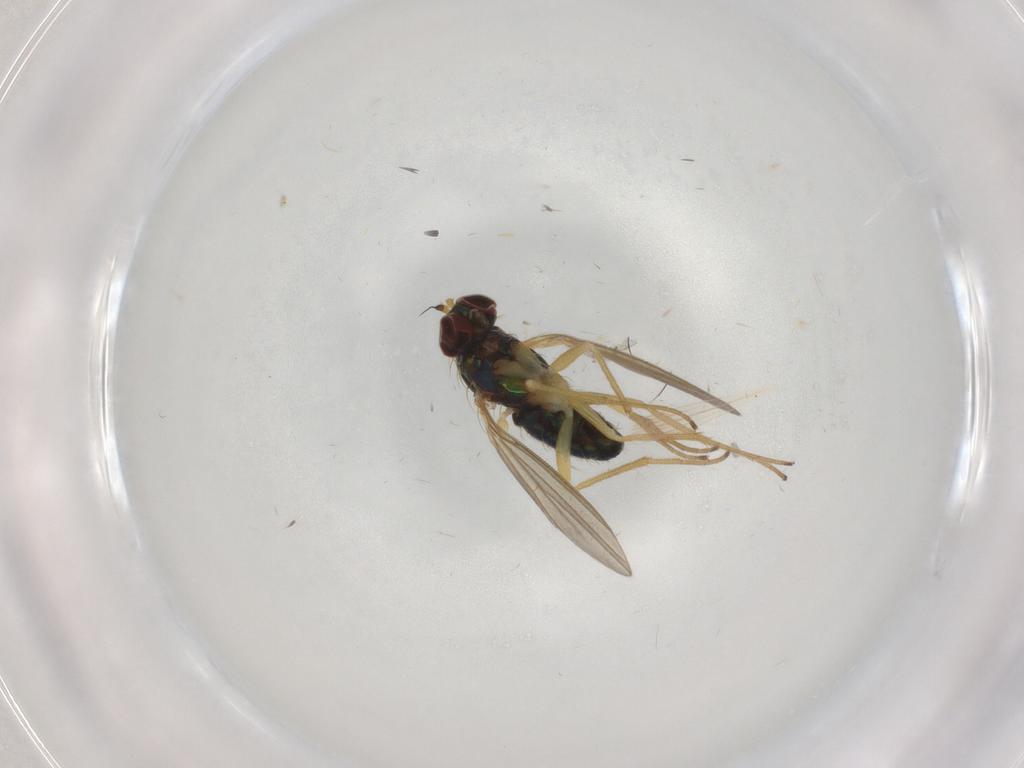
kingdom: Animalia
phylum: Arthropoda
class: Insecta
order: Diptera
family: Dolichopodidae
